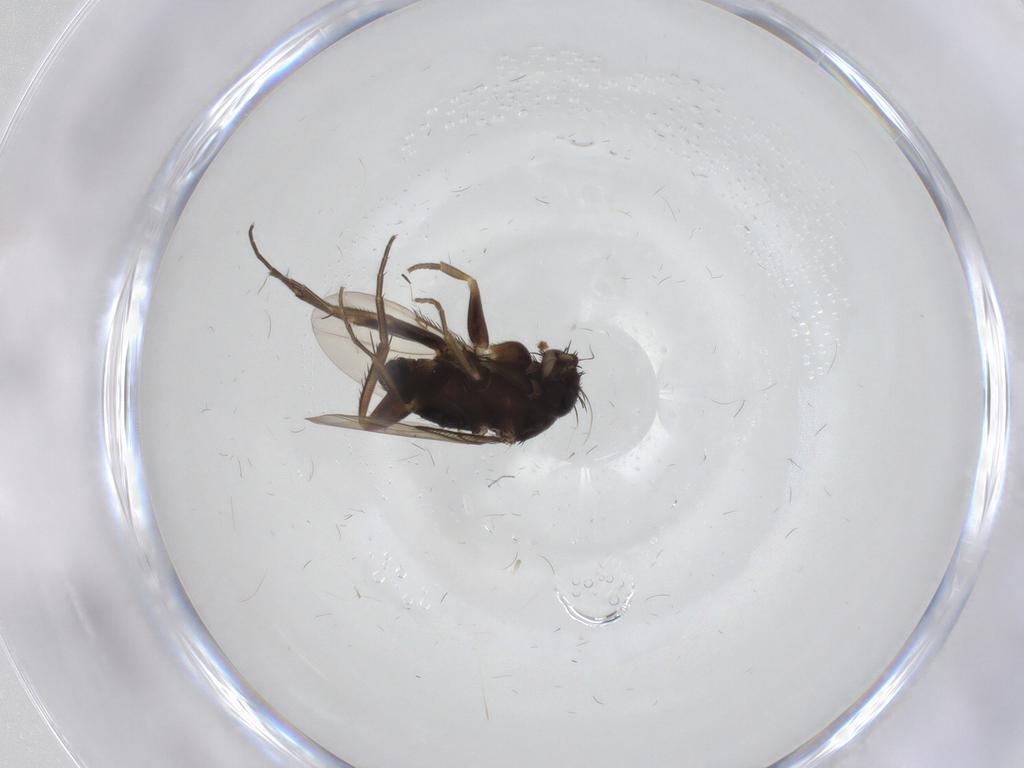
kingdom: Animalia
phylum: Arthropoda
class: Insecta
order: Diptera
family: Phoridae
